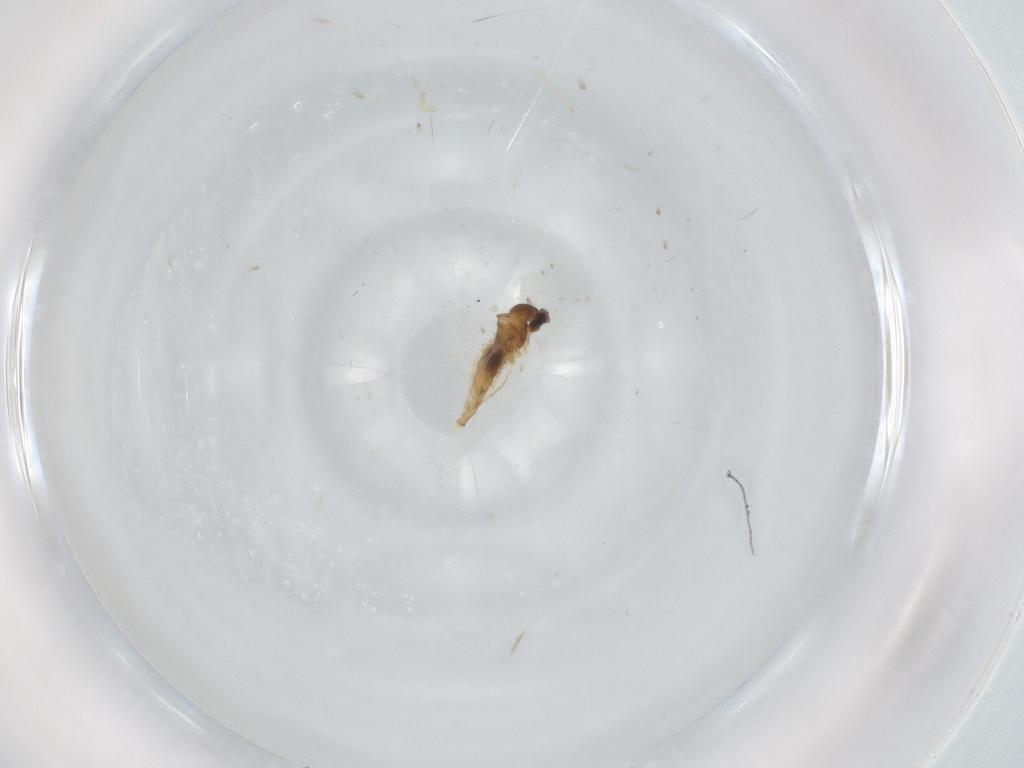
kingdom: Animalia
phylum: Arthropoda
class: Insecta
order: Diptera
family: Cecidomyiidae
